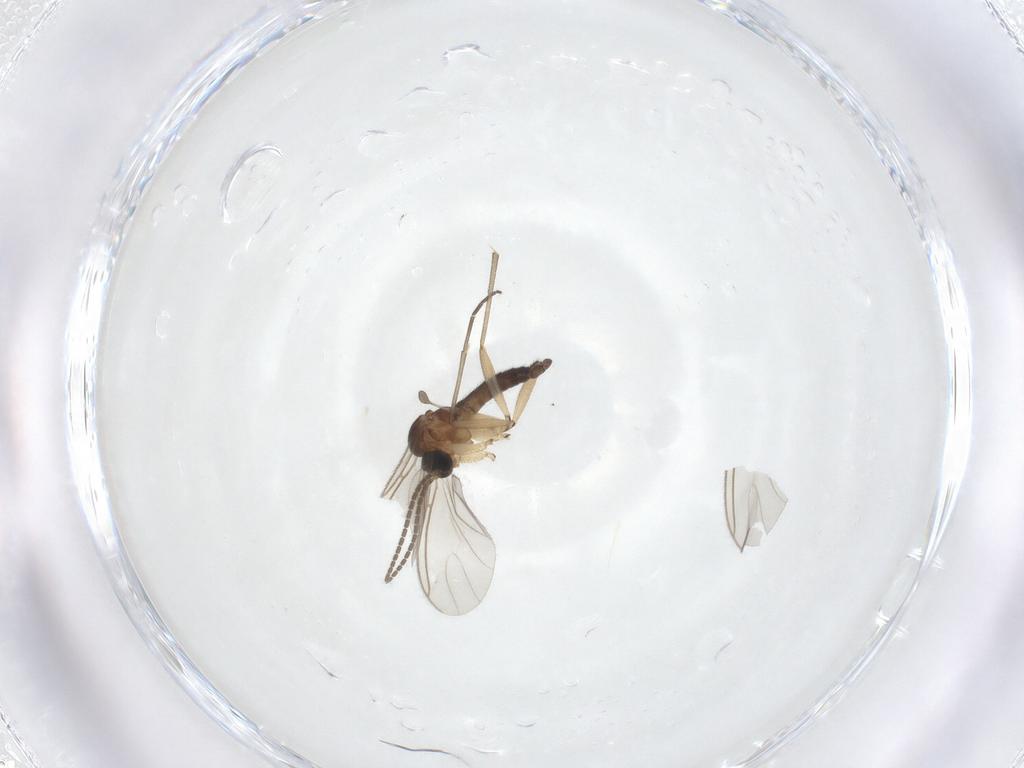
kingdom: Animalia
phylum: Arthropoda
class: Insecta
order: Diptera
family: Sciaridae
